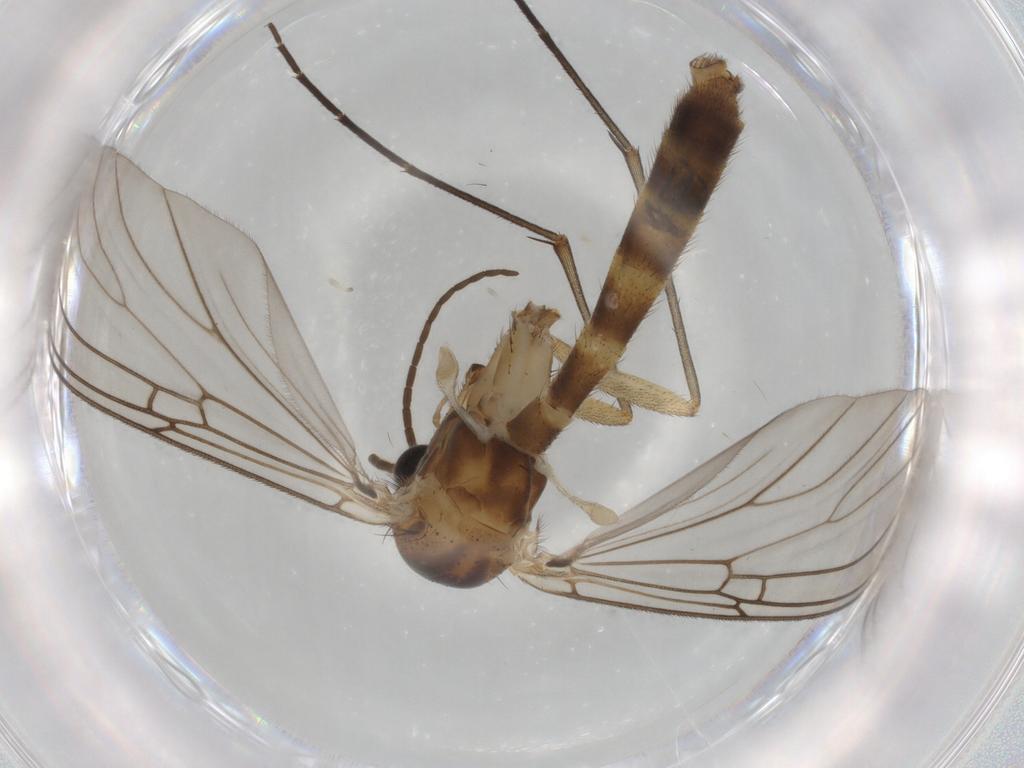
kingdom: Animalia
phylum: Arthropoda
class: Insecta
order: Diptera
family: Mycetophilidae
